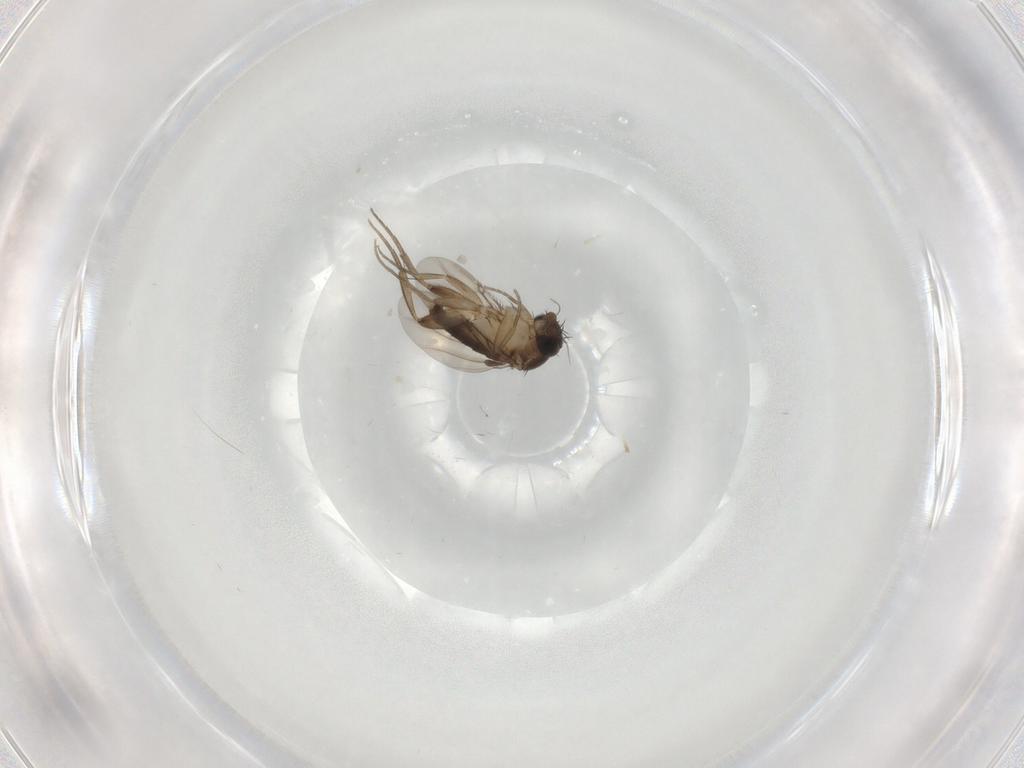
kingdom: Animalia
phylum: Arthropoda
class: Insecta
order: Diptera
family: Phoridae
